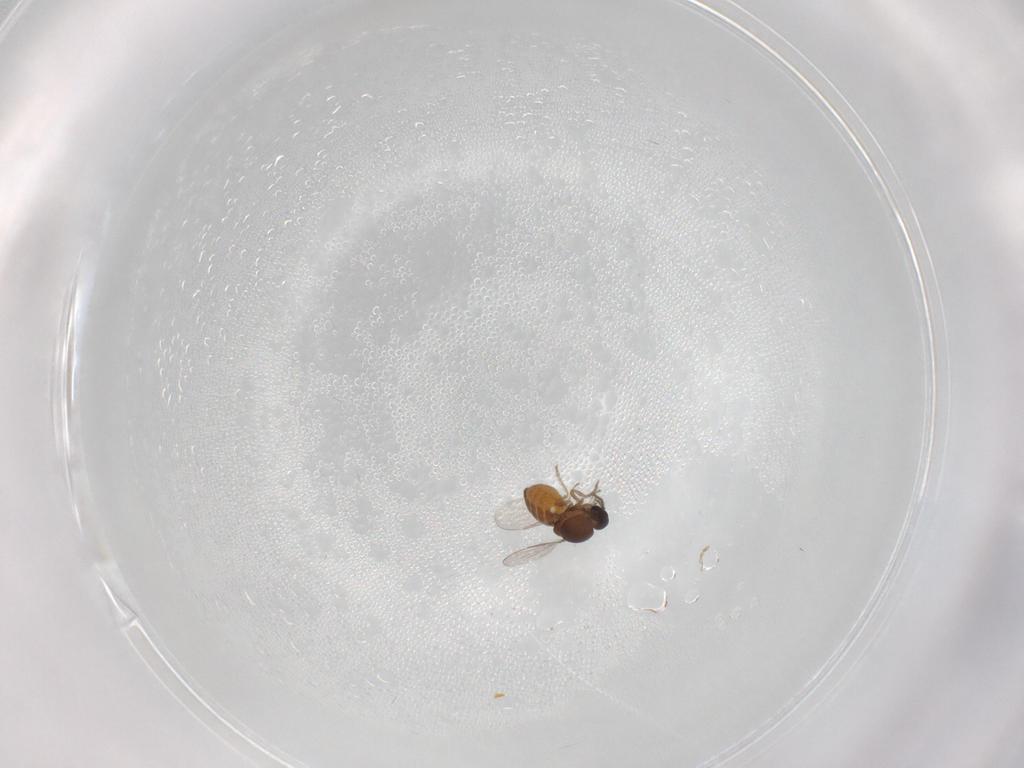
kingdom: Animalia
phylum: Arthropoda
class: Insecta
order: Diptera
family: Ceratopogonidae
